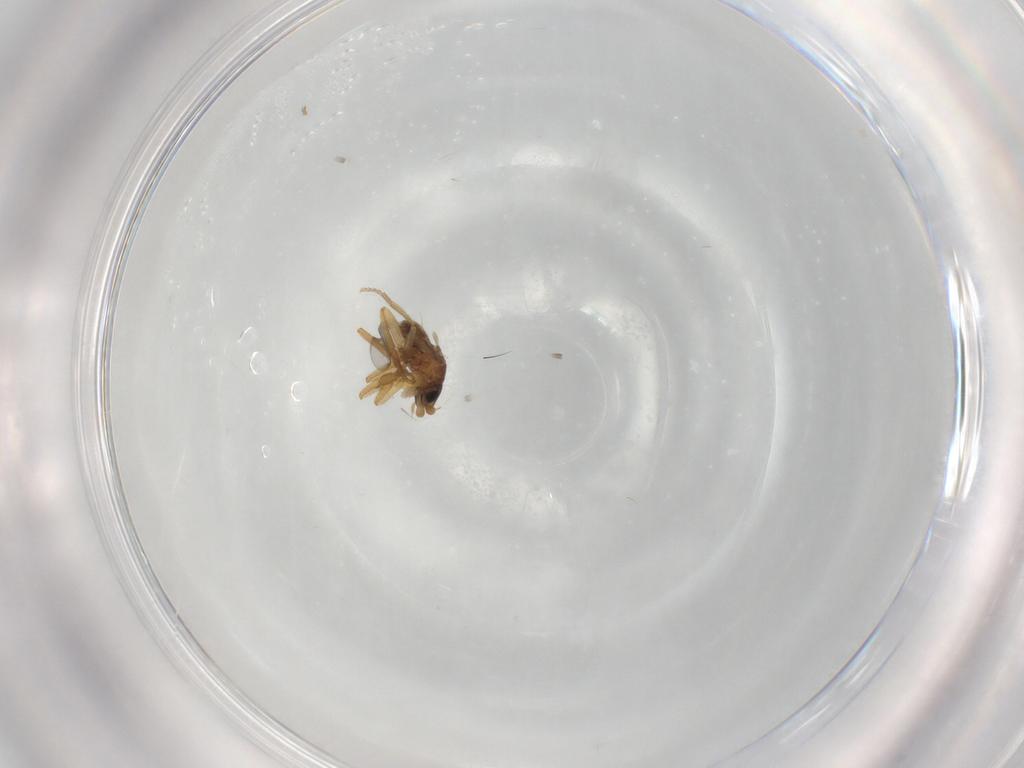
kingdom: Animalia
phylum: Arthropoda
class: Insecta
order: Diptera
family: Phoridae
